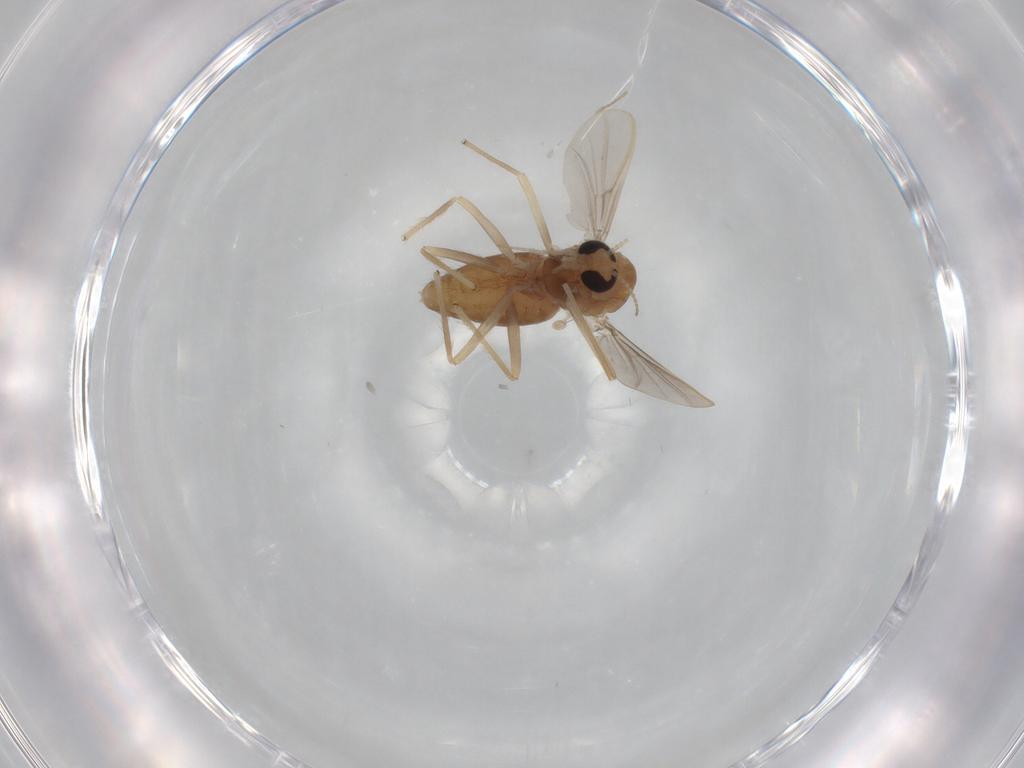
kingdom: Animalia
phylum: Arthropoda
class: Insecta
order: Diptera
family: Chironomidae
